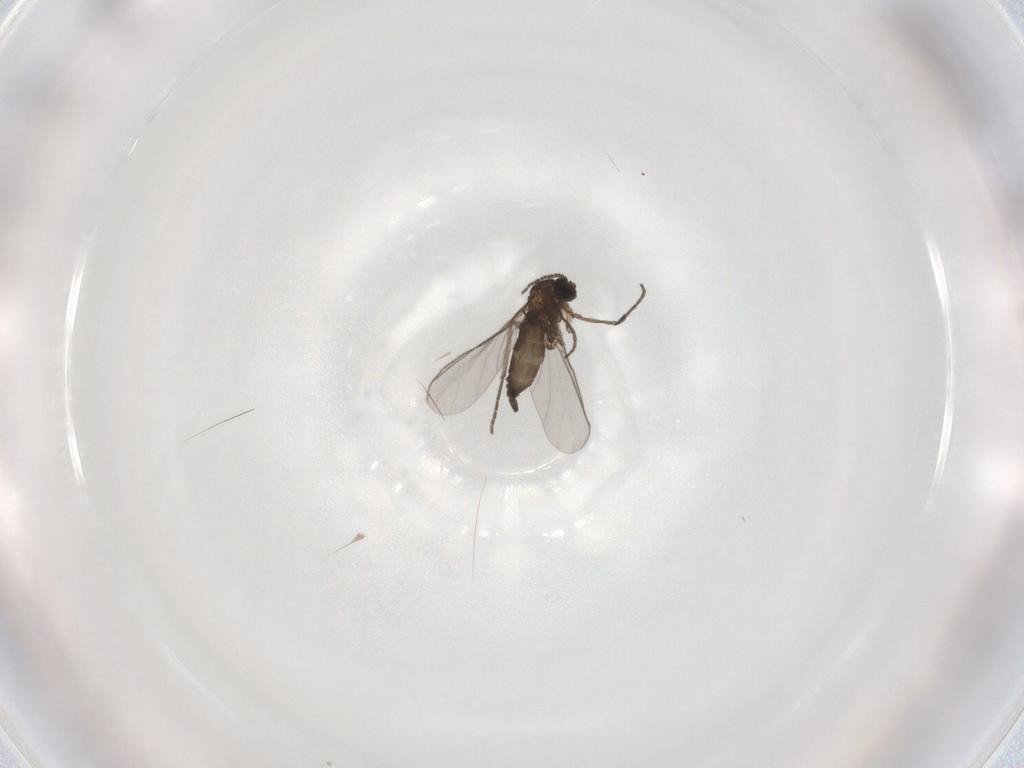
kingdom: Animalia
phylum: Arthropoda
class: Insecta
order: Diptera
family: Sciaridae
